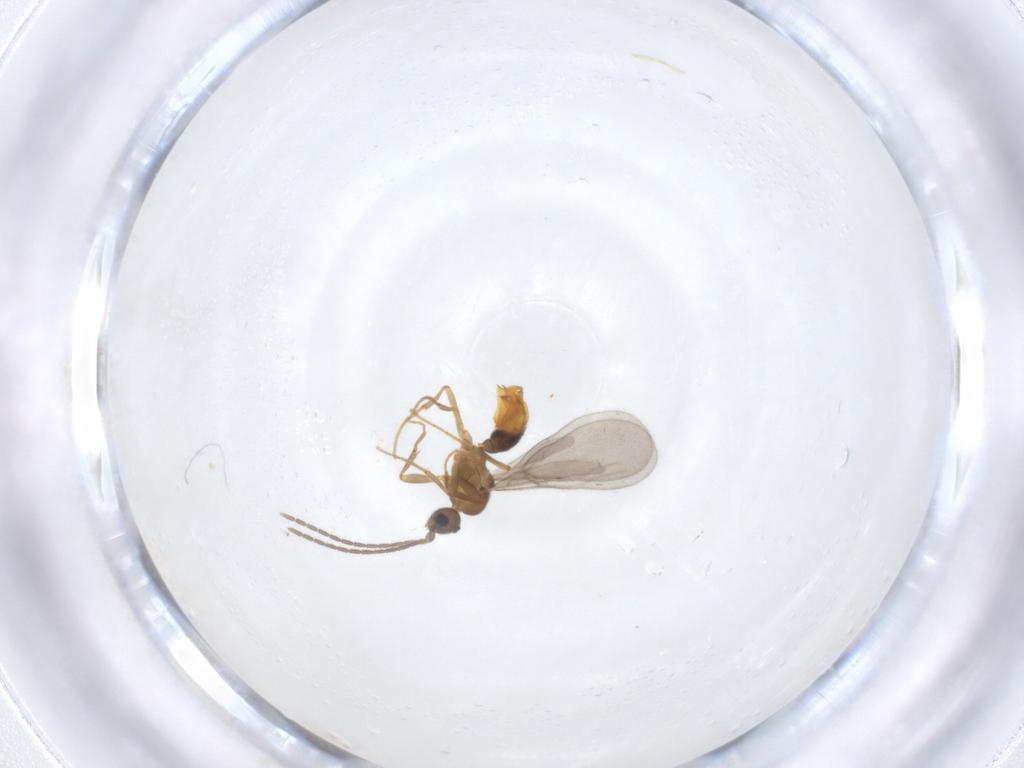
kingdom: Animalia
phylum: Arthropoda
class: Insecta
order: Hymenoptera
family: Formicidae
